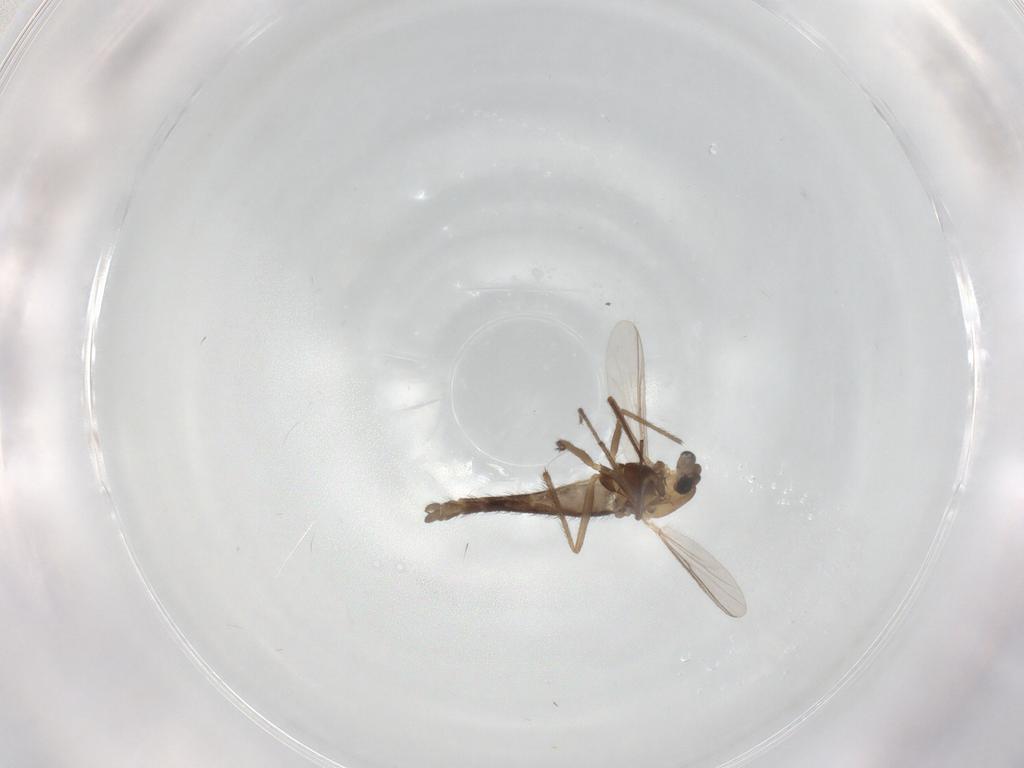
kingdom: Animalia
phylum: Arthropoda
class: Insecta
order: Diptera
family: Chironomidae
